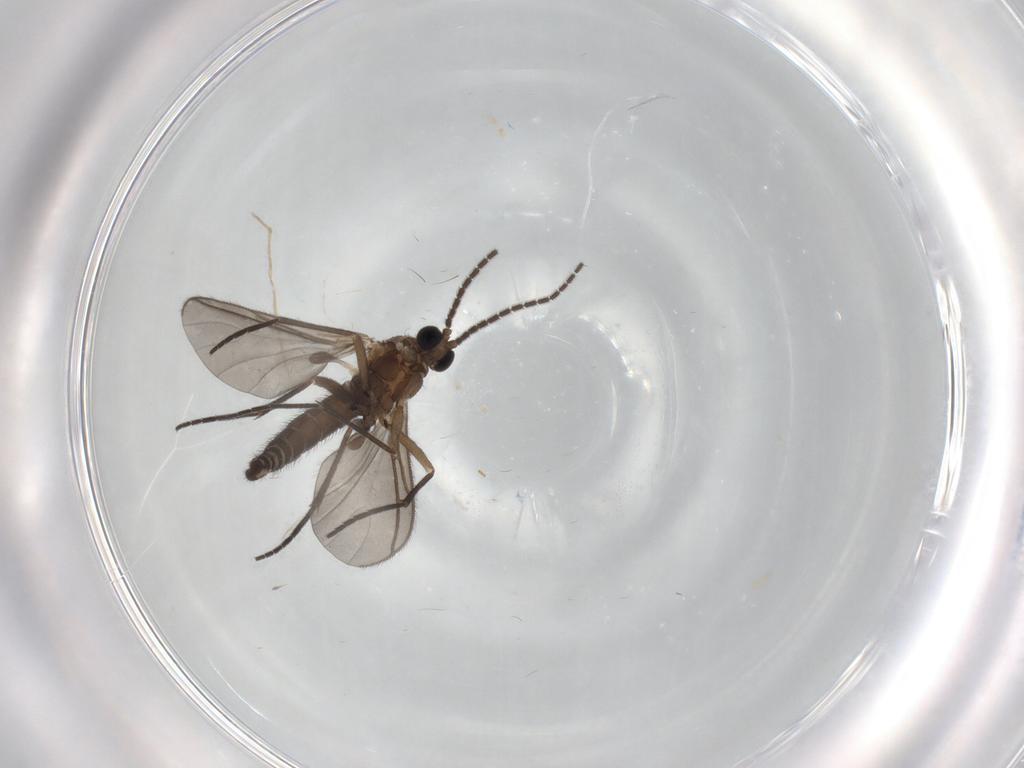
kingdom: Animalia
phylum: Arthropoda
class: Insecta
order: Diptera
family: Sciaridae
